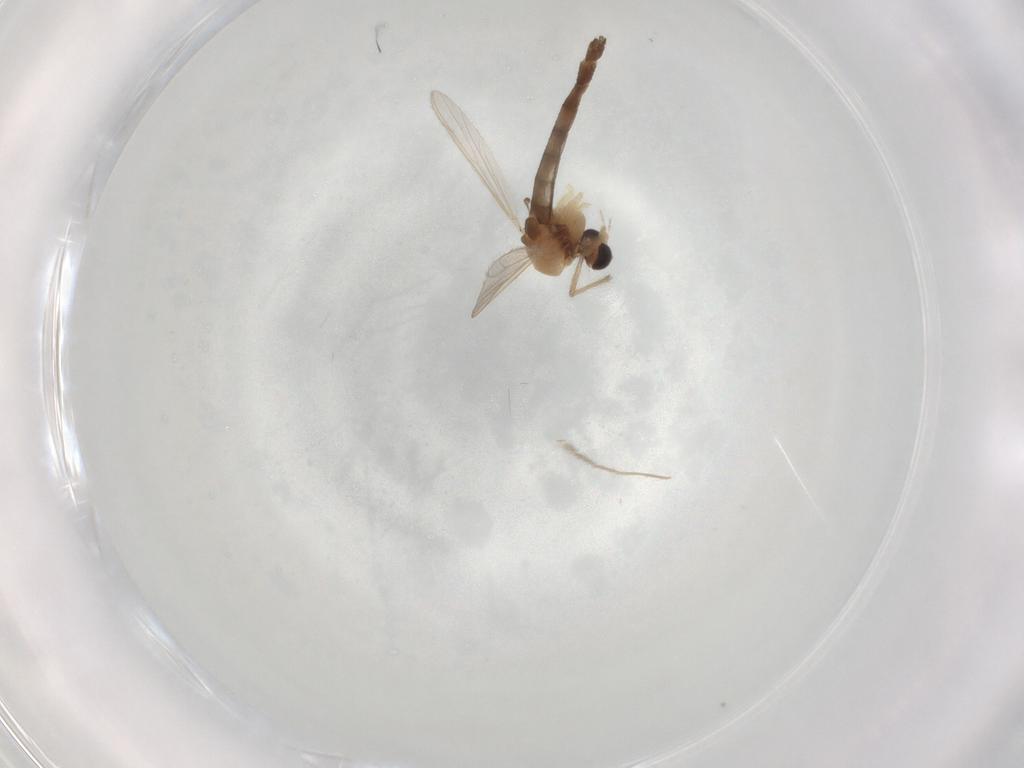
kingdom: Animalia
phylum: Arthropoda
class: Insecta
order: Diptera
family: Chironomidae
